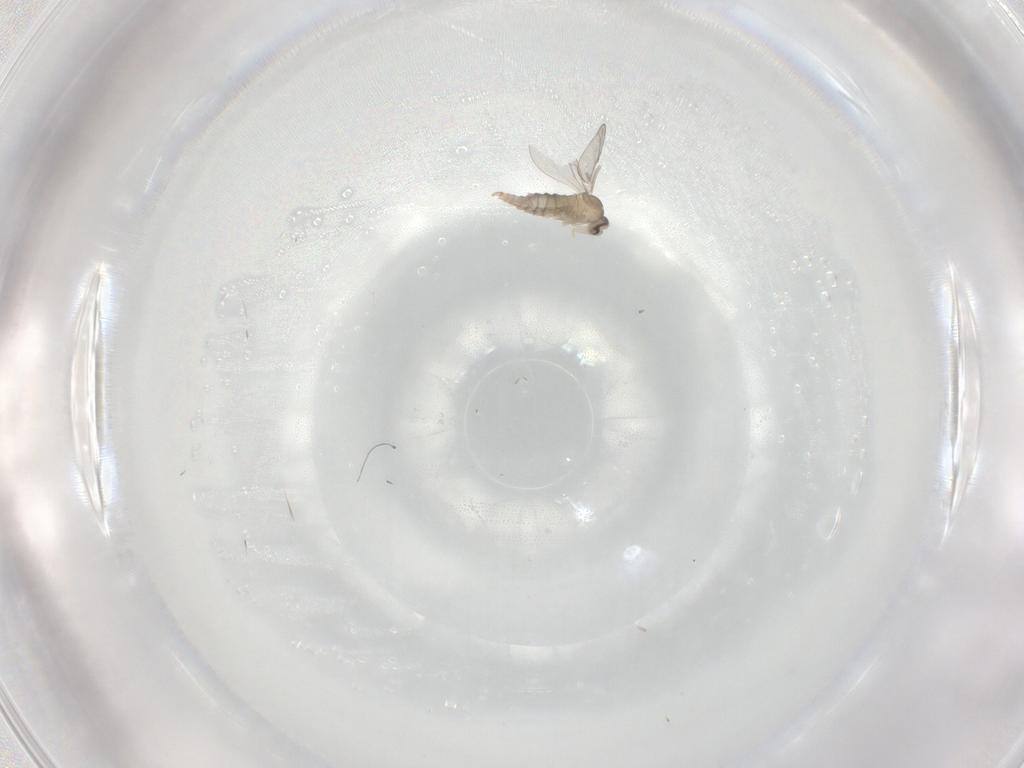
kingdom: Animalia
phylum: Arthropoda
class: Insecta
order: Diptera
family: Cecidomyiidae
